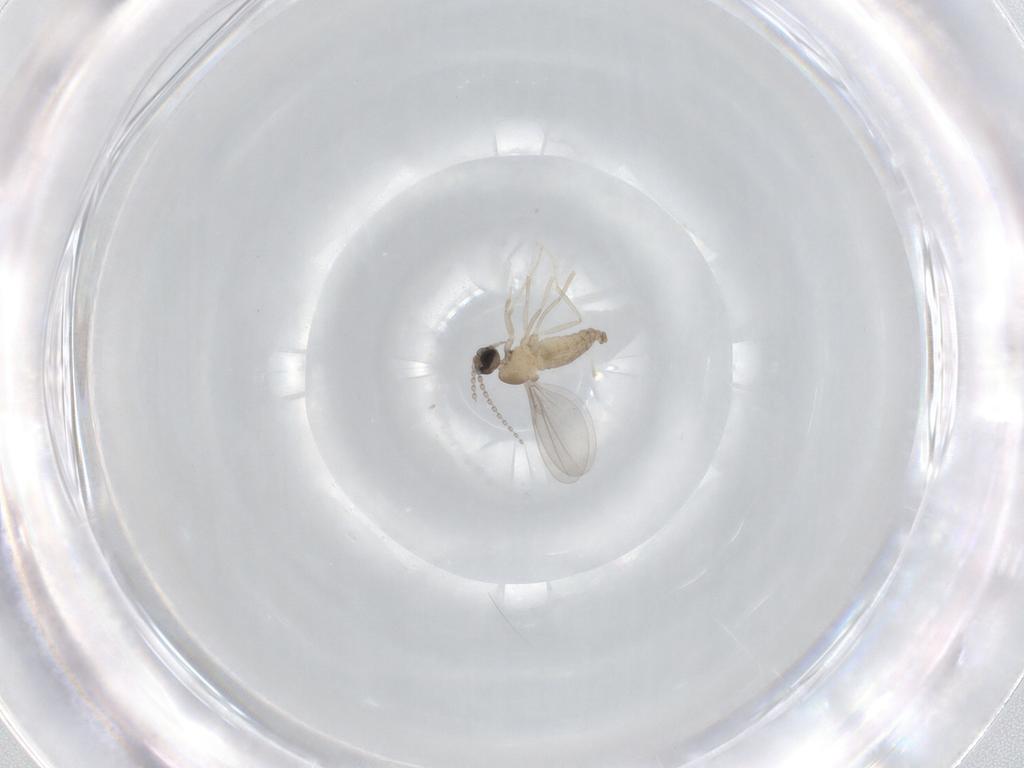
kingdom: Animalia
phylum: Arthropoda
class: Insecta
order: Diptera
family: Cecidomyiidae
